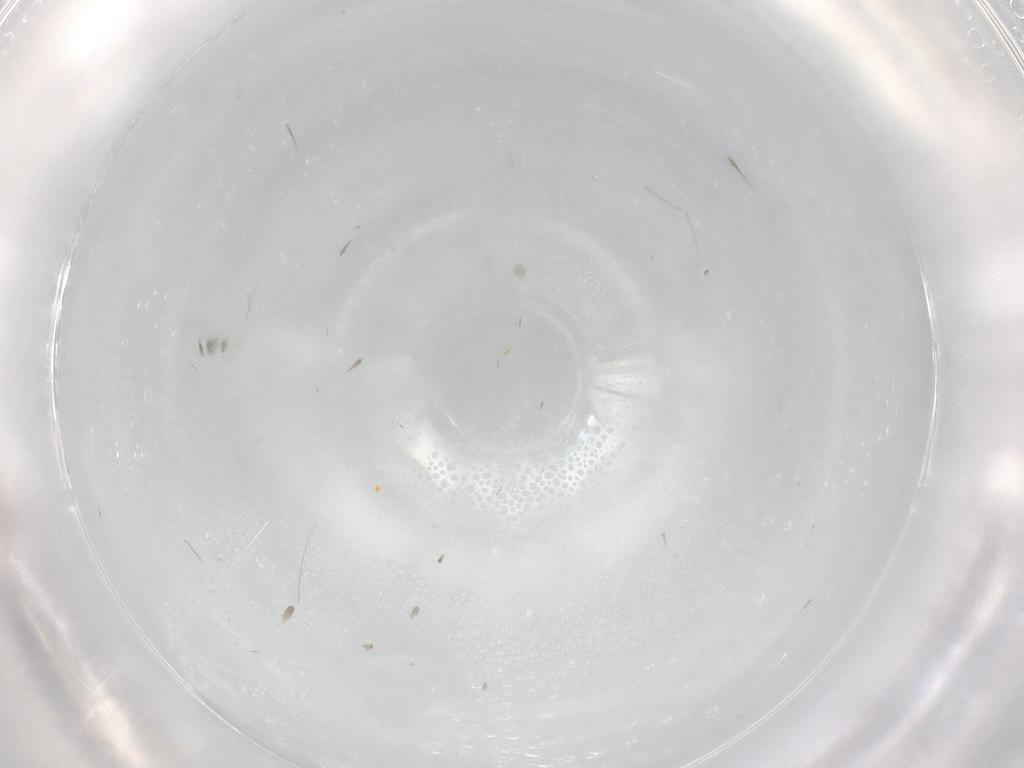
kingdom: Animalia
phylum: Arthropoda
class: Insecta
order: Diptera
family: Ceratopogonidae
